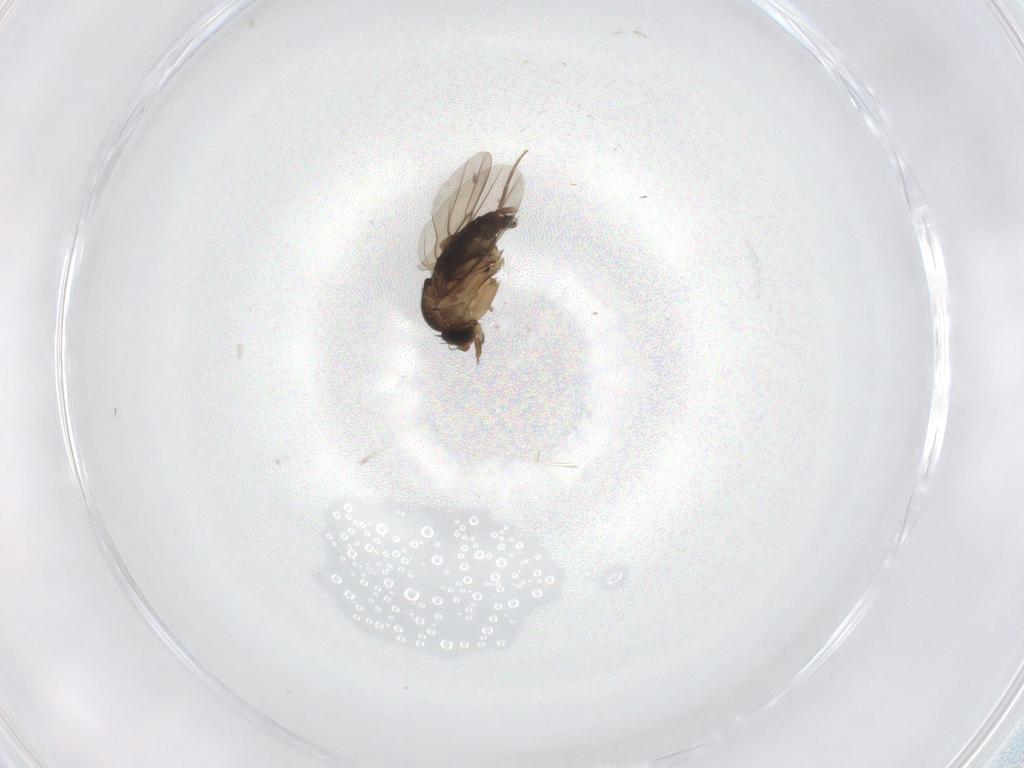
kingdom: Animalia
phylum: Arthropoda
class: Insecta
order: Diptera
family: Phoridae
